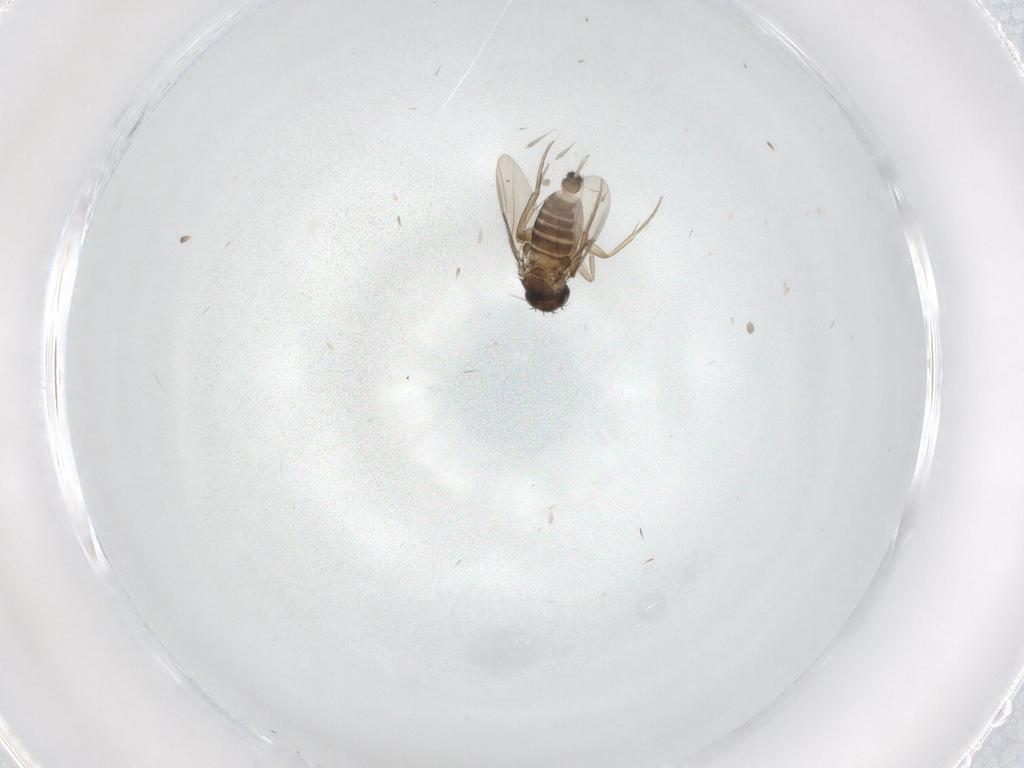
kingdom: Animalia
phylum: Arthropoda
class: Insecta
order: Diptera
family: Phoridae
